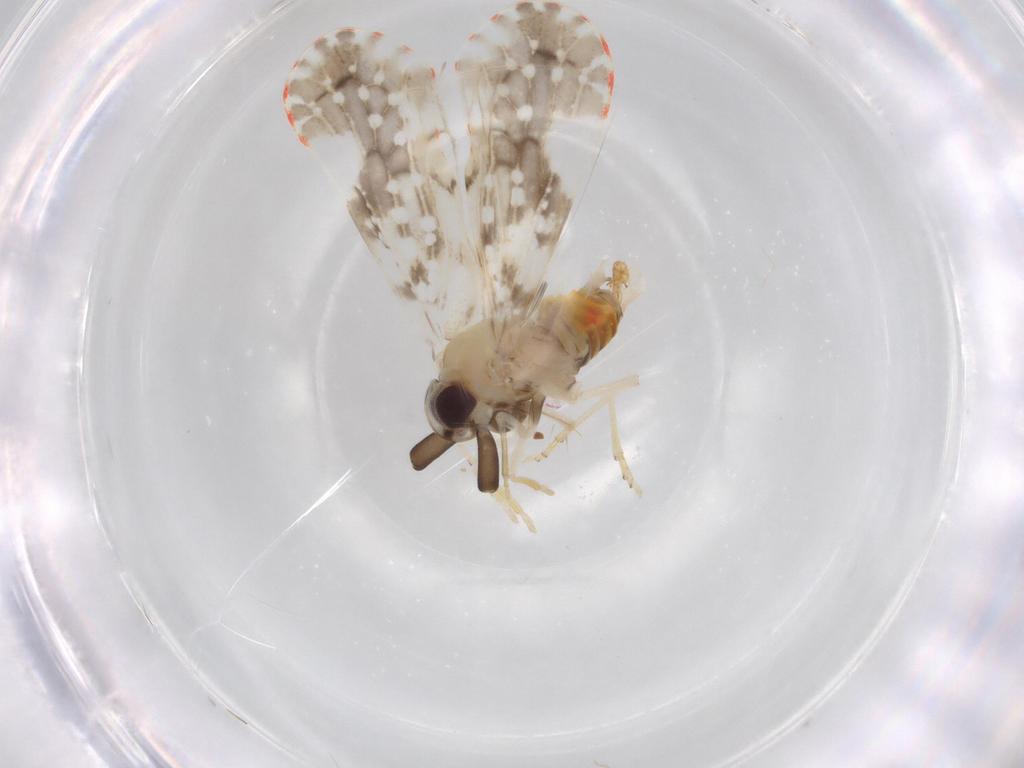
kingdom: Animalia
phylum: Arthropoda
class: Insecta
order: Hemiptera
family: Derbidae
